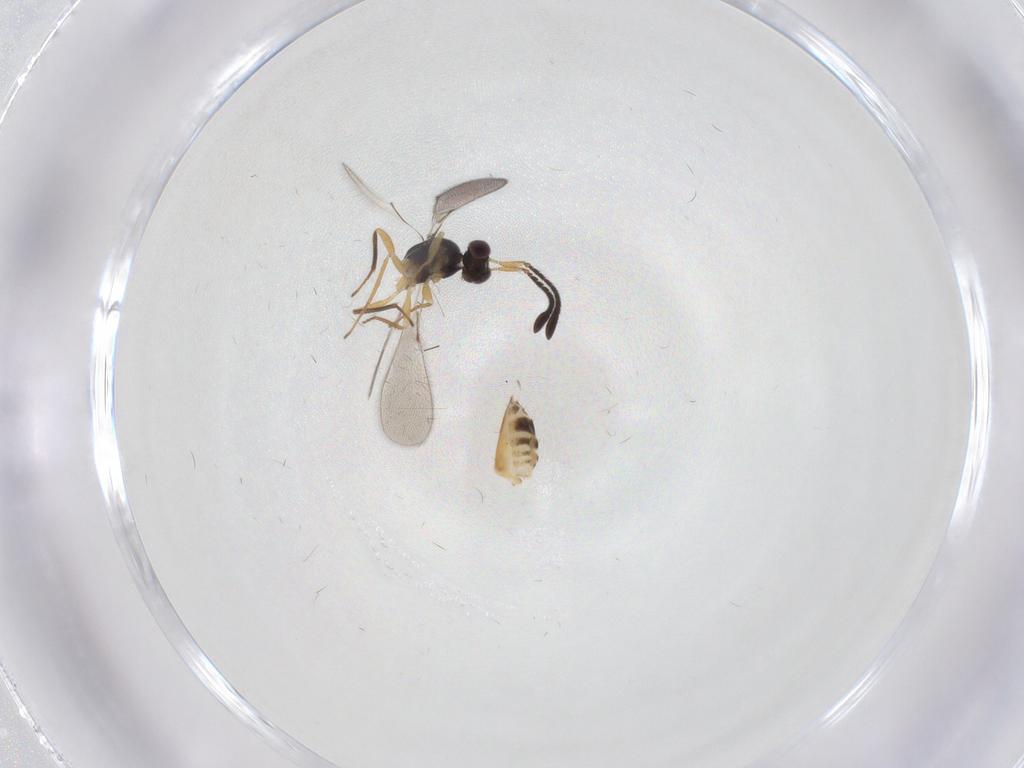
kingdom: Animalia
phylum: Arthropoda
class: Insecta
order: Hymenoptera
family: Mymaridae
